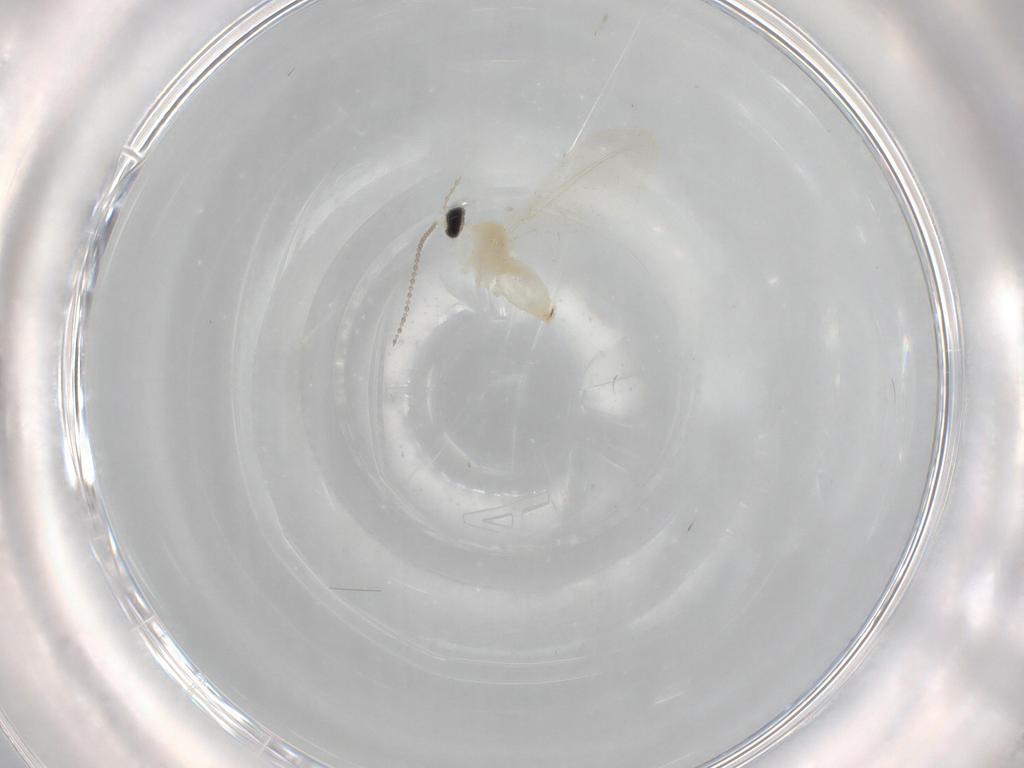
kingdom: Animalia
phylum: Arthropoda
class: Insecta
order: Diptera
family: Cecidomyiidae
